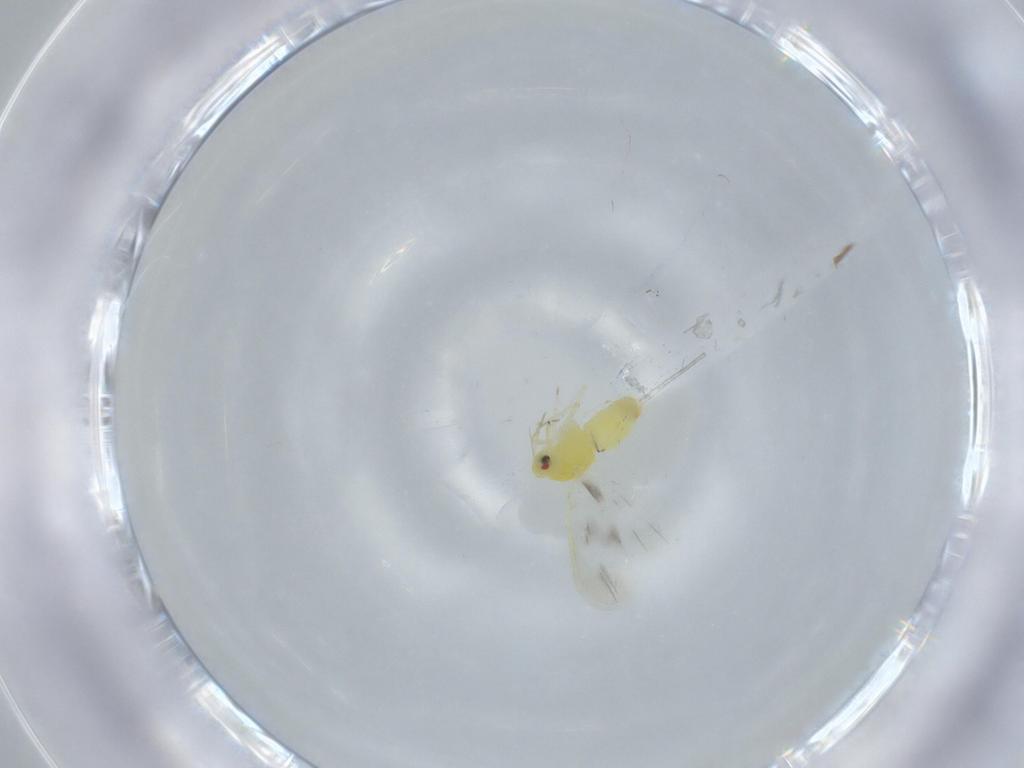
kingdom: Animalia
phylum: Arthropoda
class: Insecta
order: Hemiptera
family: Aleyrodidae
